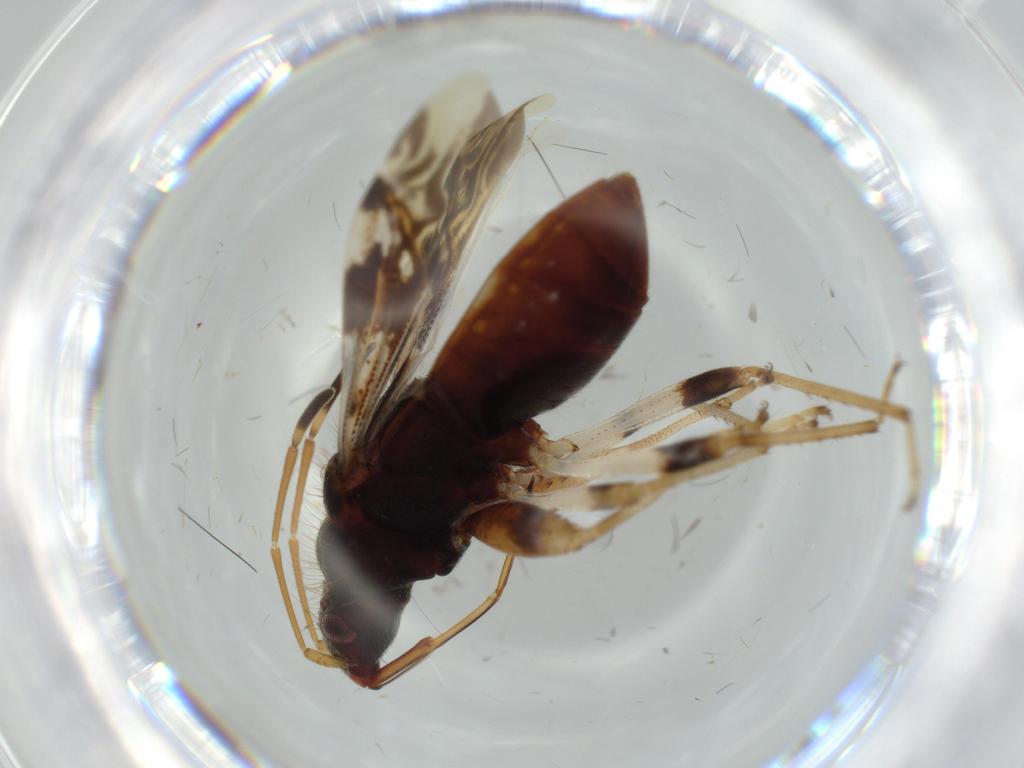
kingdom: Animalia
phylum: Arthropoda
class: Insecta
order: Hemiptera
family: Rhyparochromidae
